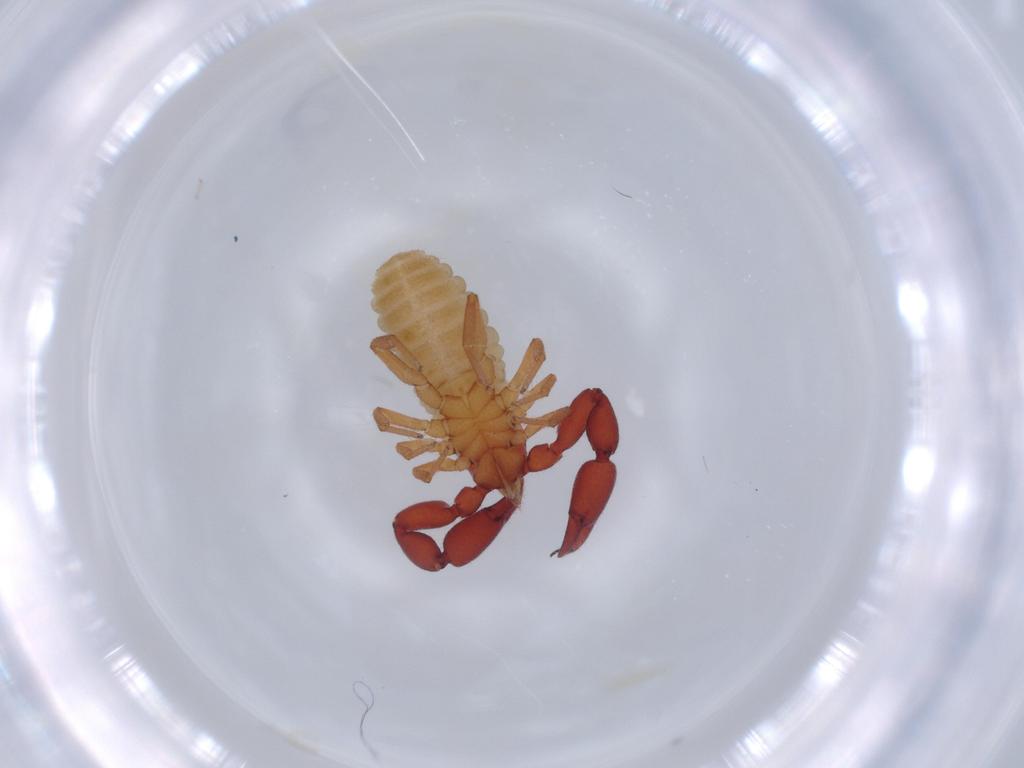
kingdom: Animalia
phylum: Arthropoda
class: Arachnida
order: Pseudoscorpiones
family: Chernetidae
